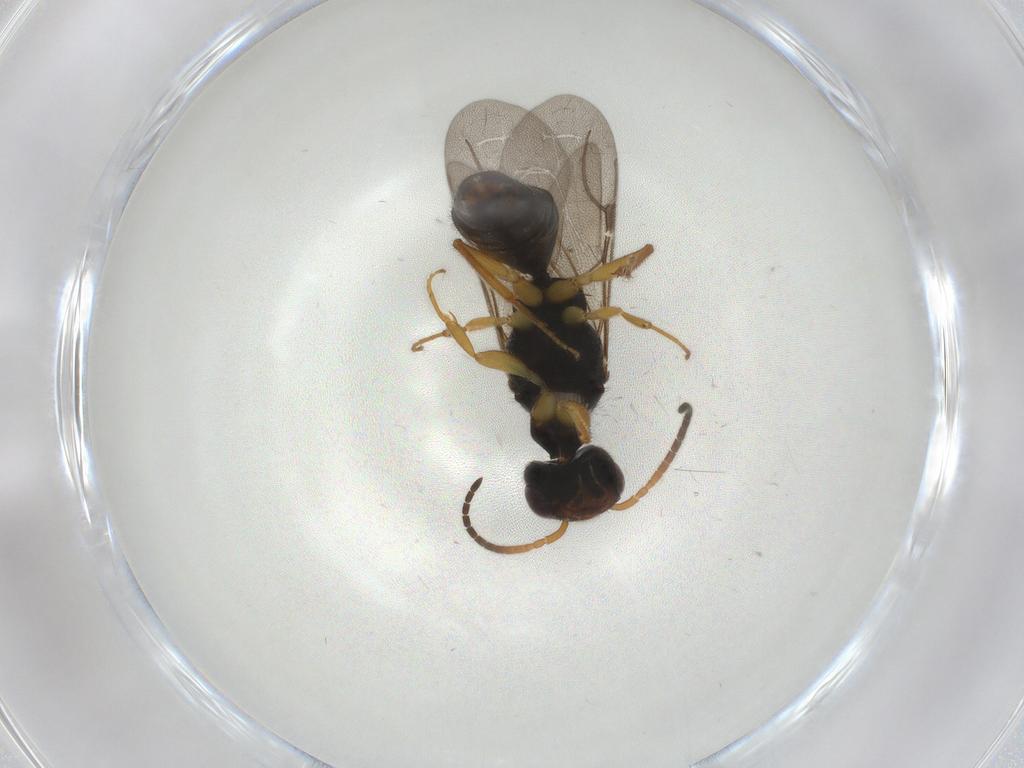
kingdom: Animalia
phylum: Arthropoda
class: Insecta
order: Hymenoptera
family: Bethylidae
